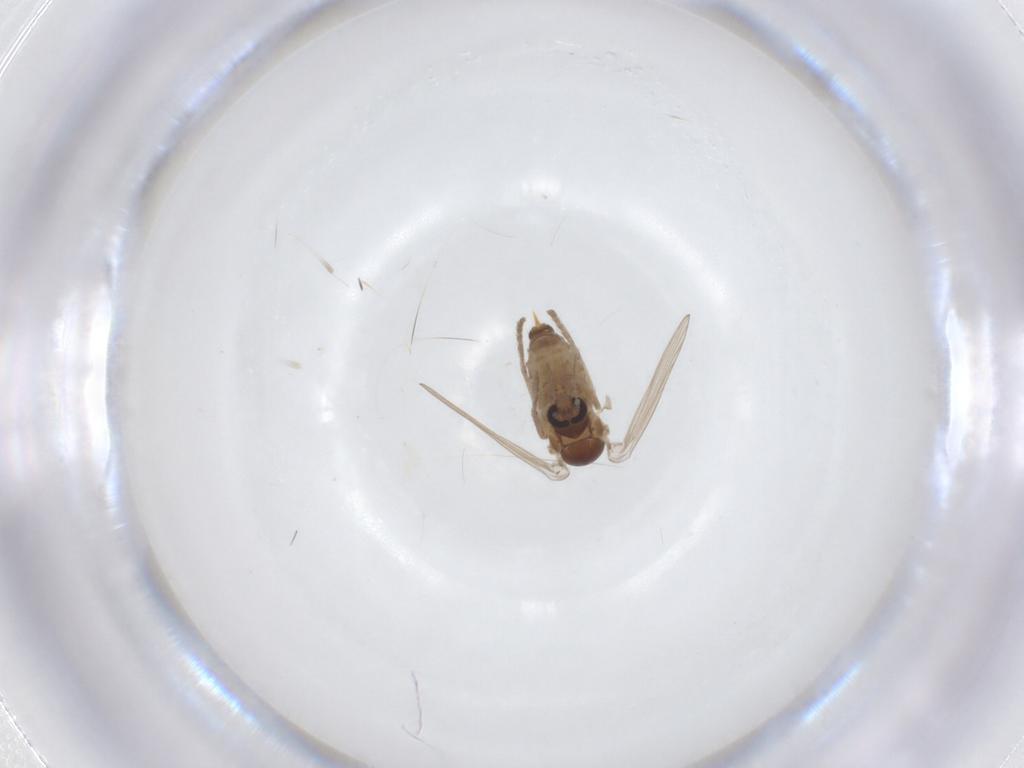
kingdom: Animalia
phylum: Arthropoda
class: Insecta
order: Diptera
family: Psychodidae
